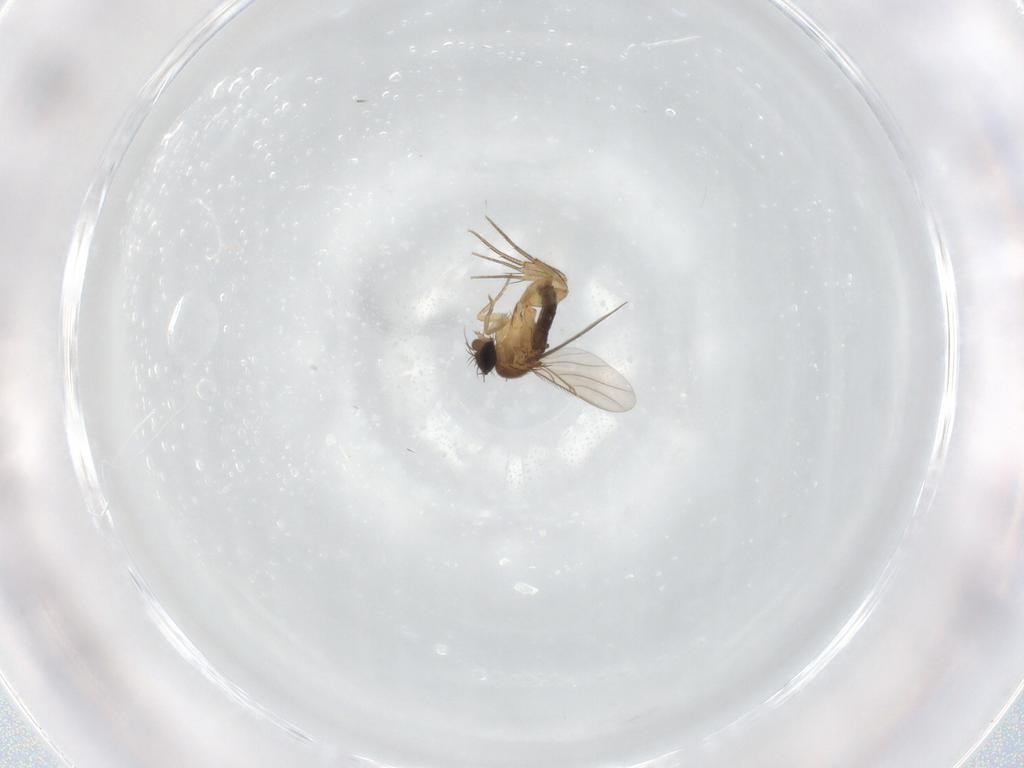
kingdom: Animalia
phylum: Arthropoda
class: Insecta
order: Diptera
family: Phoridae
